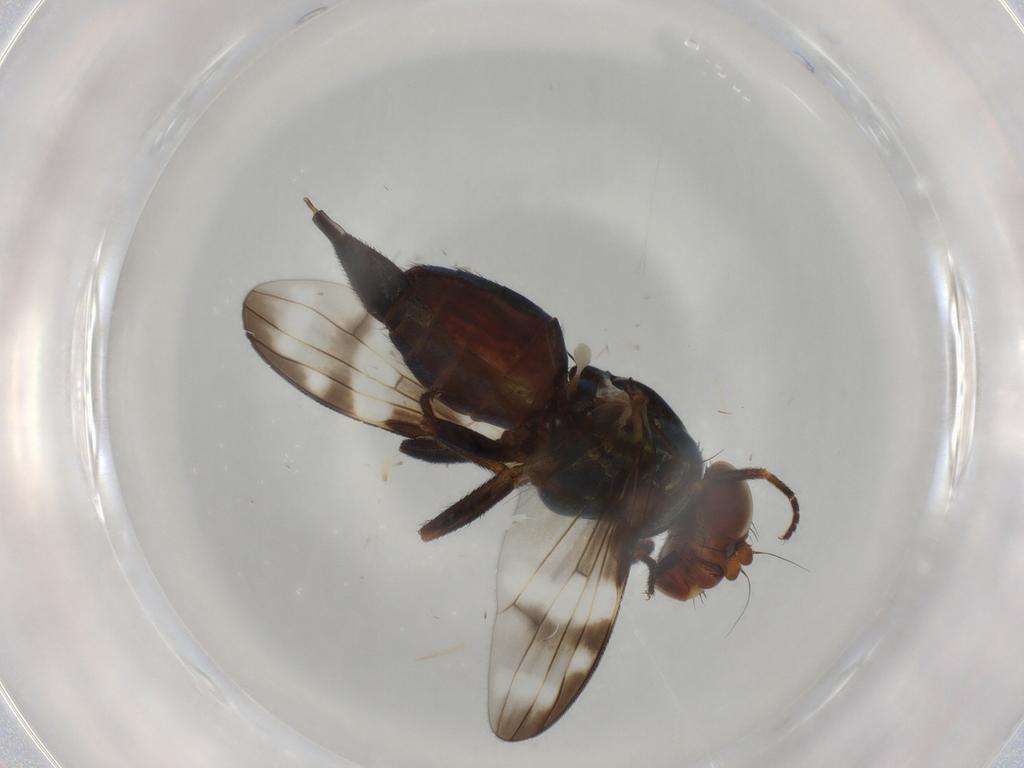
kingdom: Animalia
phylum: Arthropoda
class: Insecta
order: Diptera
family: Ulidiidae
